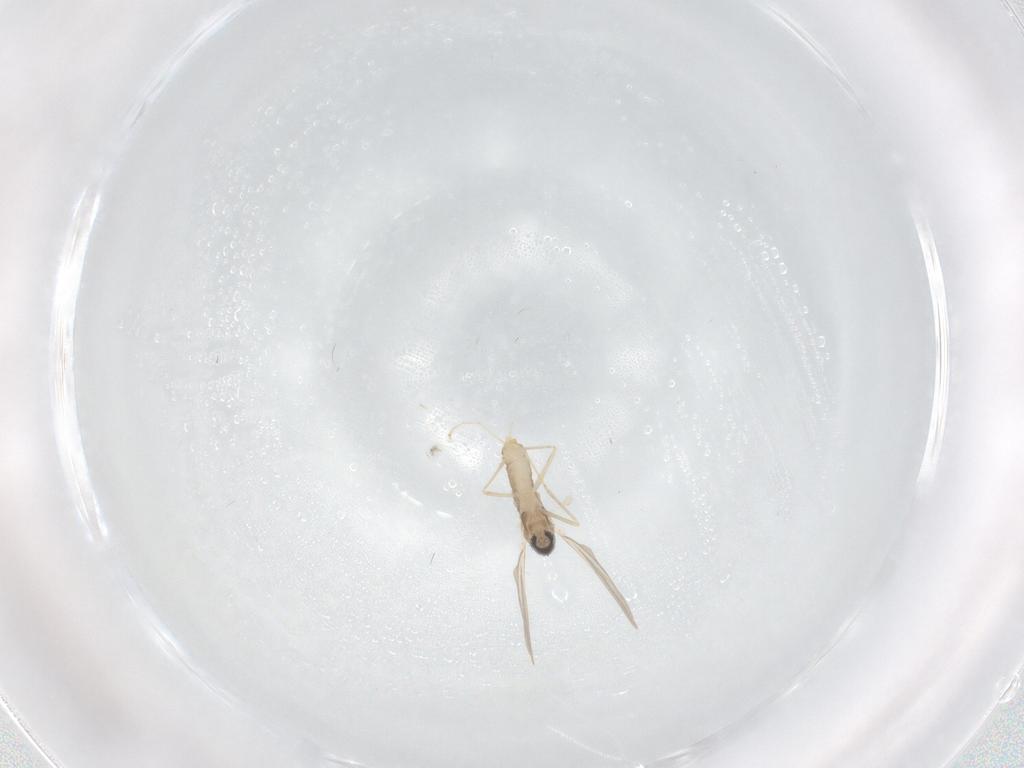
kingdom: Animalia
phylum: Arthropoda
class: Insecta
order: Diptera
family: Cecidomyiidae
